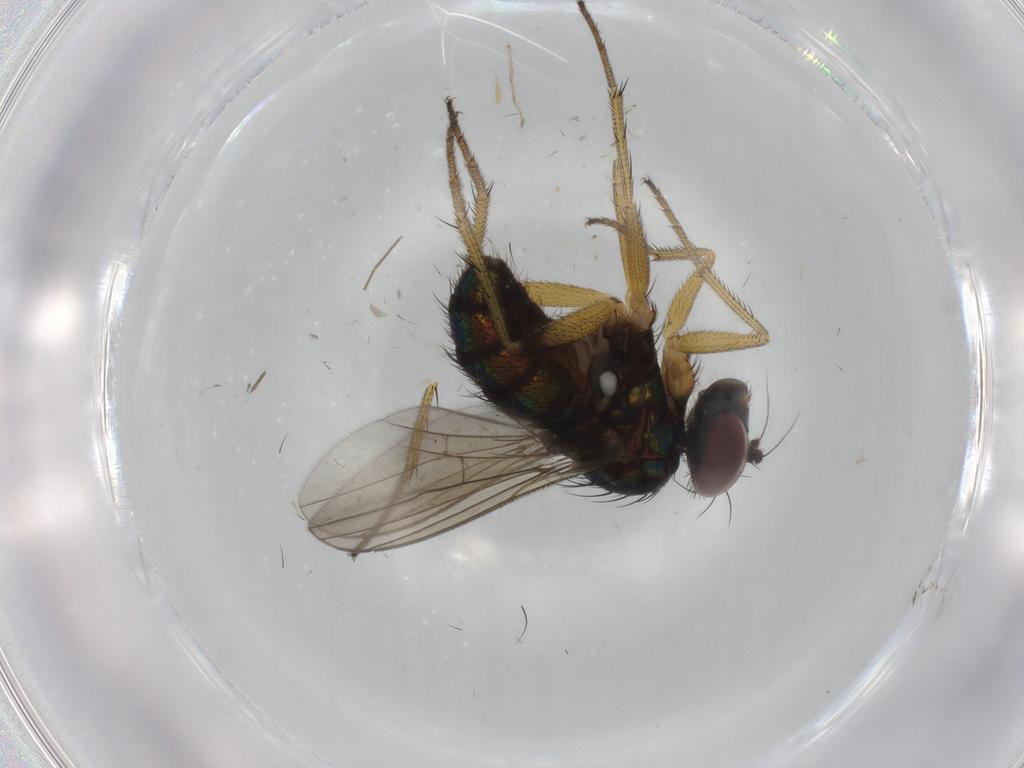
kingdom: Animalia
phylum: Arthropoda
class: Insecta
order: Diptera
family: Dolichopodidae
